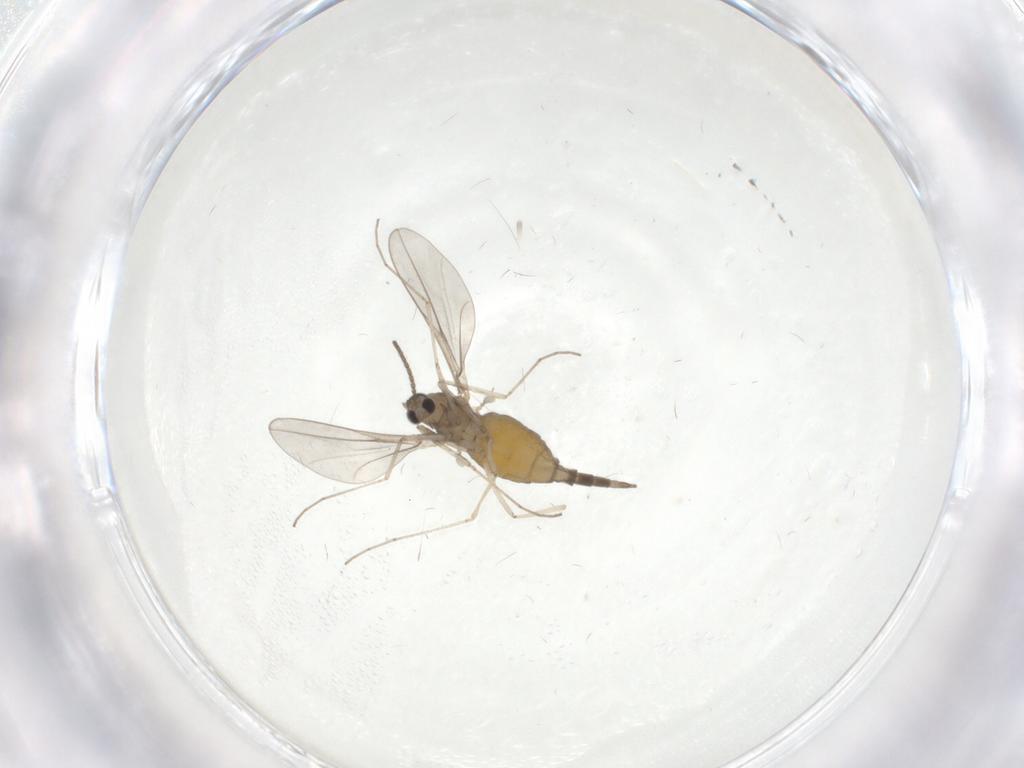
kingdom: Animalia
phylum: Arthropoda
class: Insecta
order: Diptera
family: Cecidomyiidae
